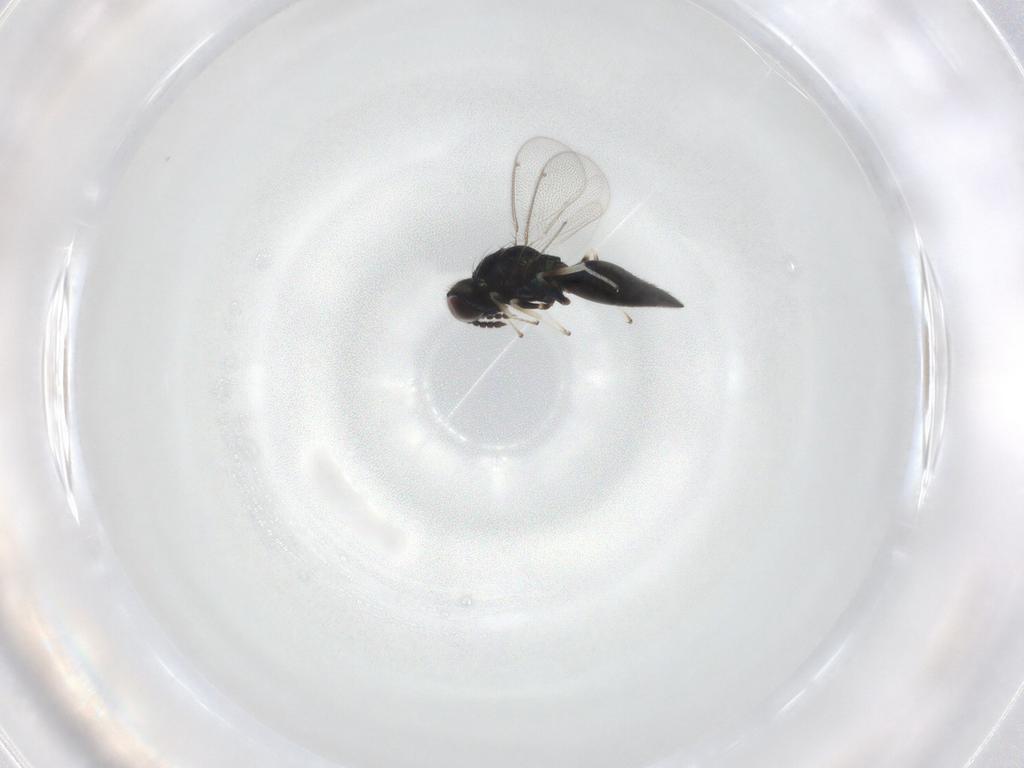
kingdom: Animalia
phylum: Arthropoda
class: Insecta
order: Hymenoptera
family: Eulophidae
